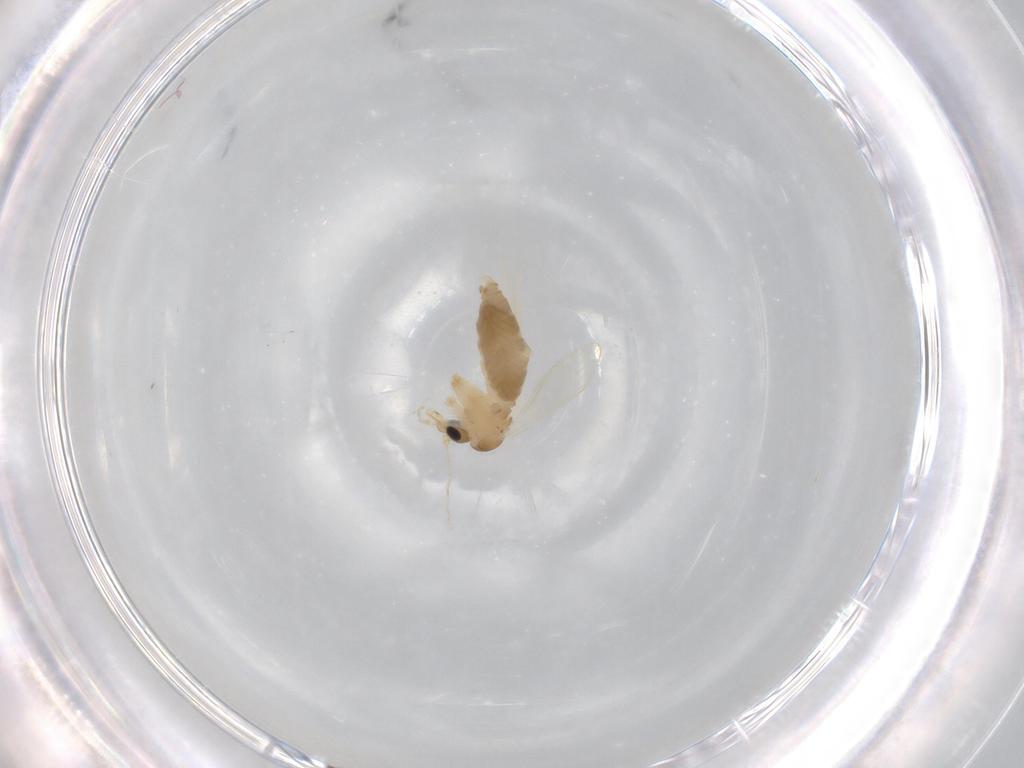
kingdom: Animalia
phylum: Arthropoda
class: Insecta
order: Diptera
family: Psychodidae
